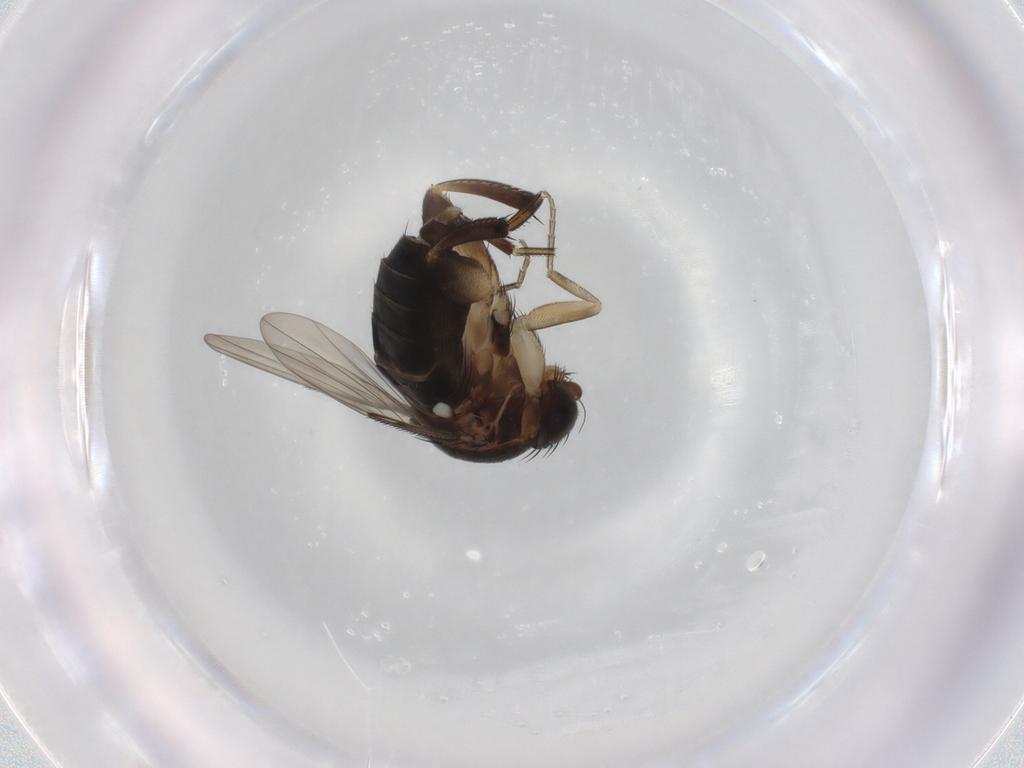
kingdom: Animalia
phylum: Arthropoda
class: Insecta
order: Diptera
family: Phoridae
